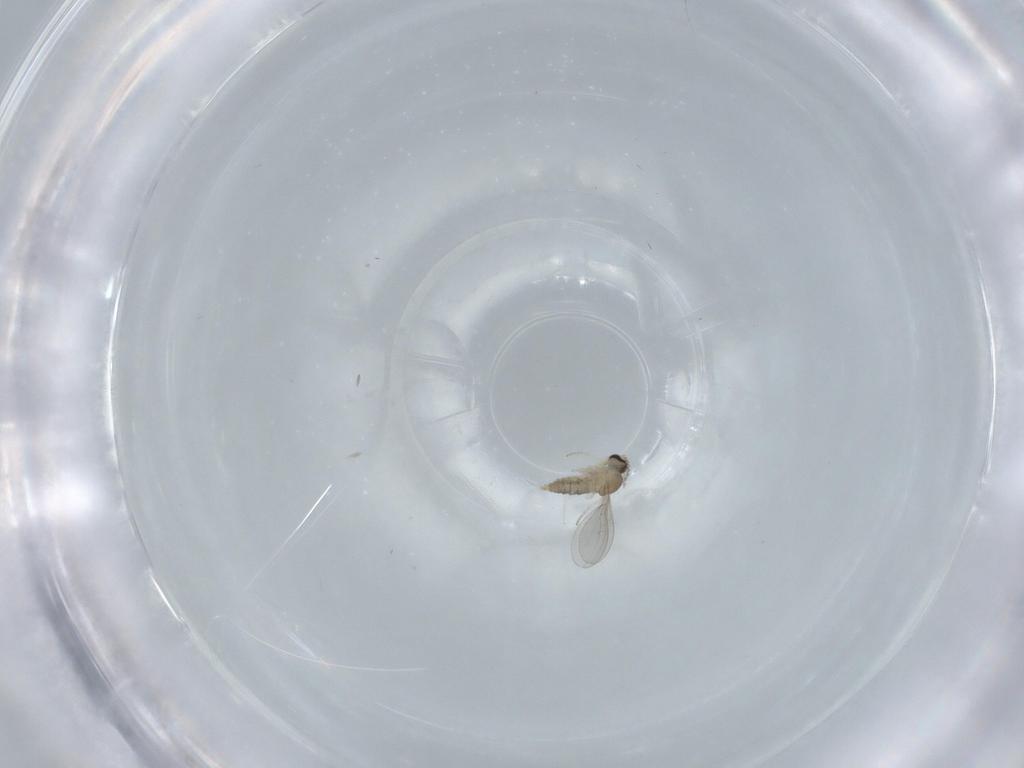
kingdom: Animalia
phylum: Arthropoda
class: Insecta
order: Diptera
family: Cecidomyiidae
